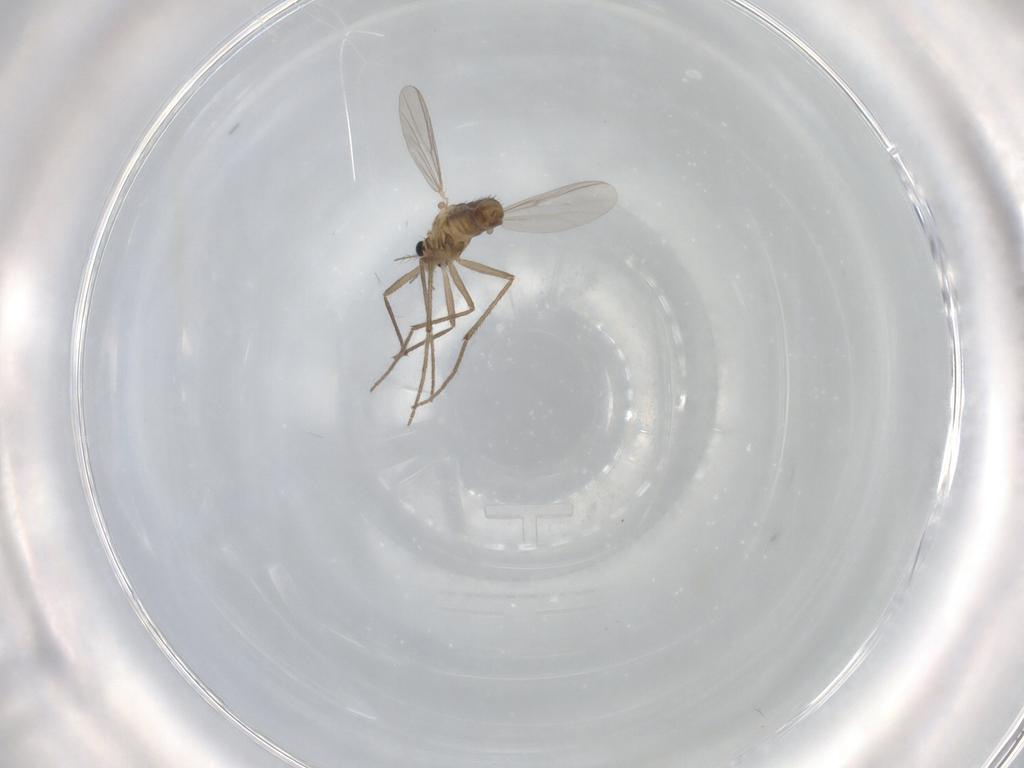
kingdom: Animalia
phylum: Arthropoda
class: Insecta
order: Diptera
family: Chironomidae
